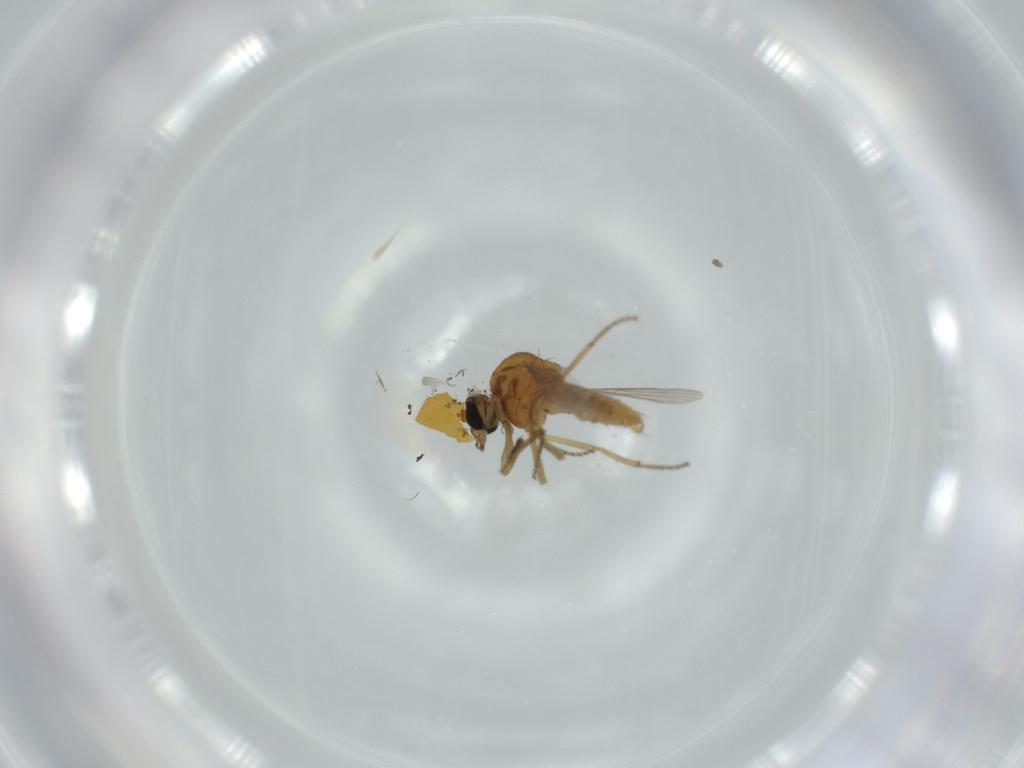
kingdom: Animalia
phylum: Arthropoda
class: Insecta
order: Diptera
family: Ceratopogonidae
